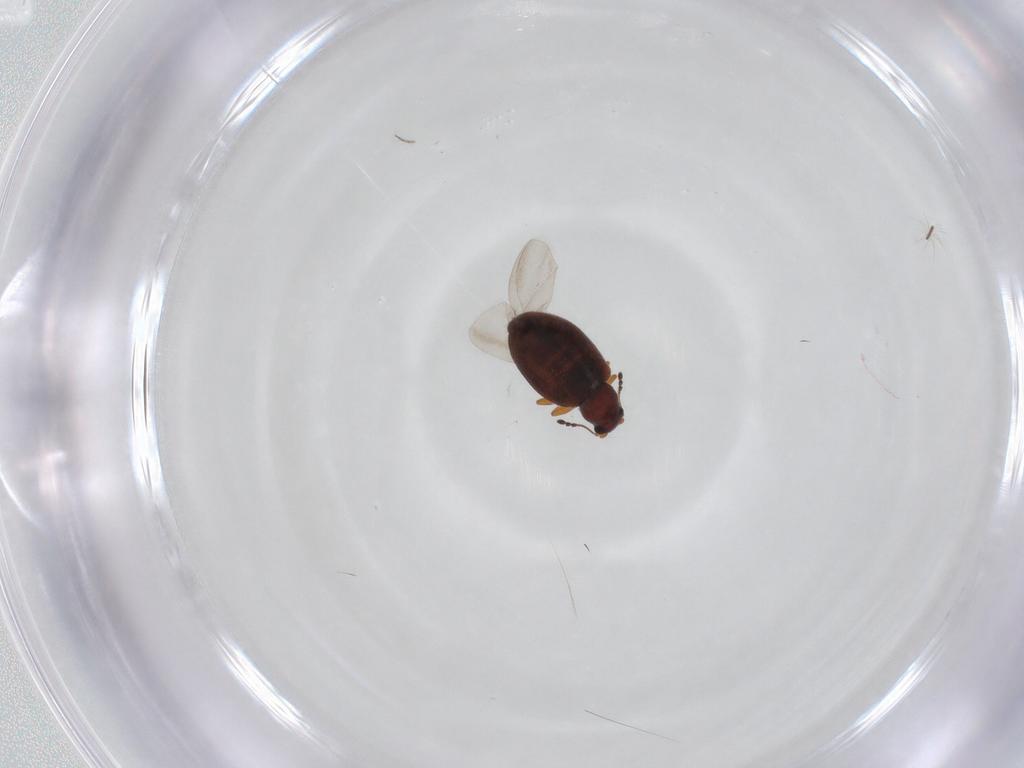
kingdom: Animalia
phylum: Arthropoda
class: Insecta
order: Coleoptera
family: Latridiidae
